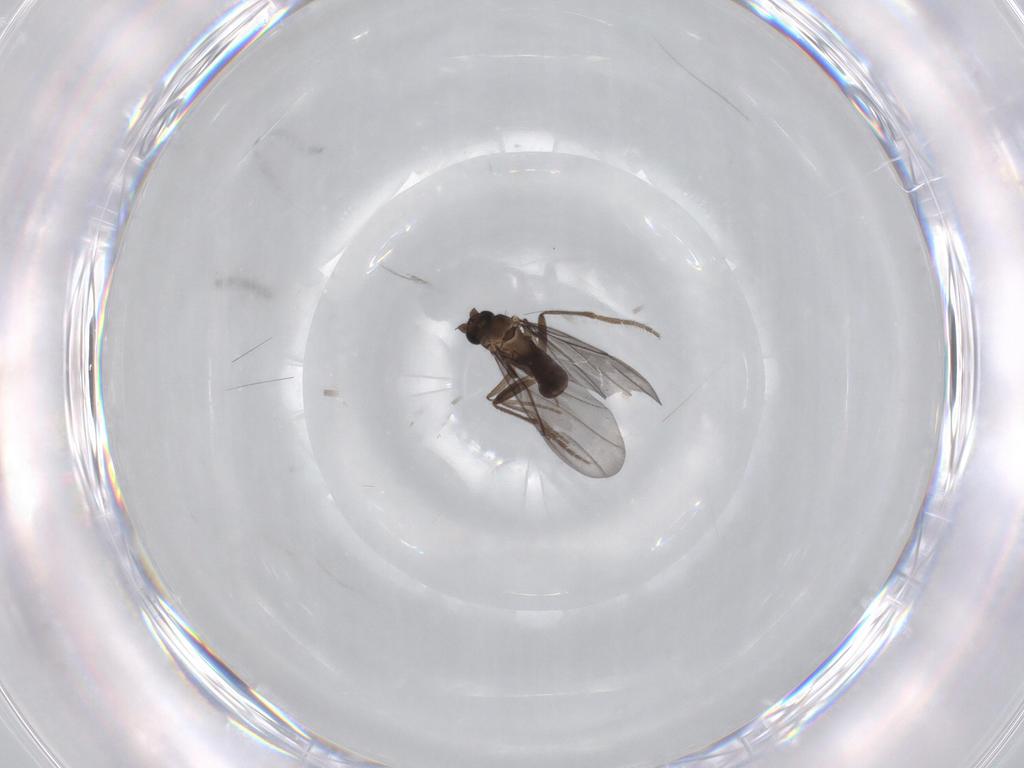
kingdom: Animalia
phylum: Arthropoda
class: Insecta
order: Diptera
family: Phoridae
